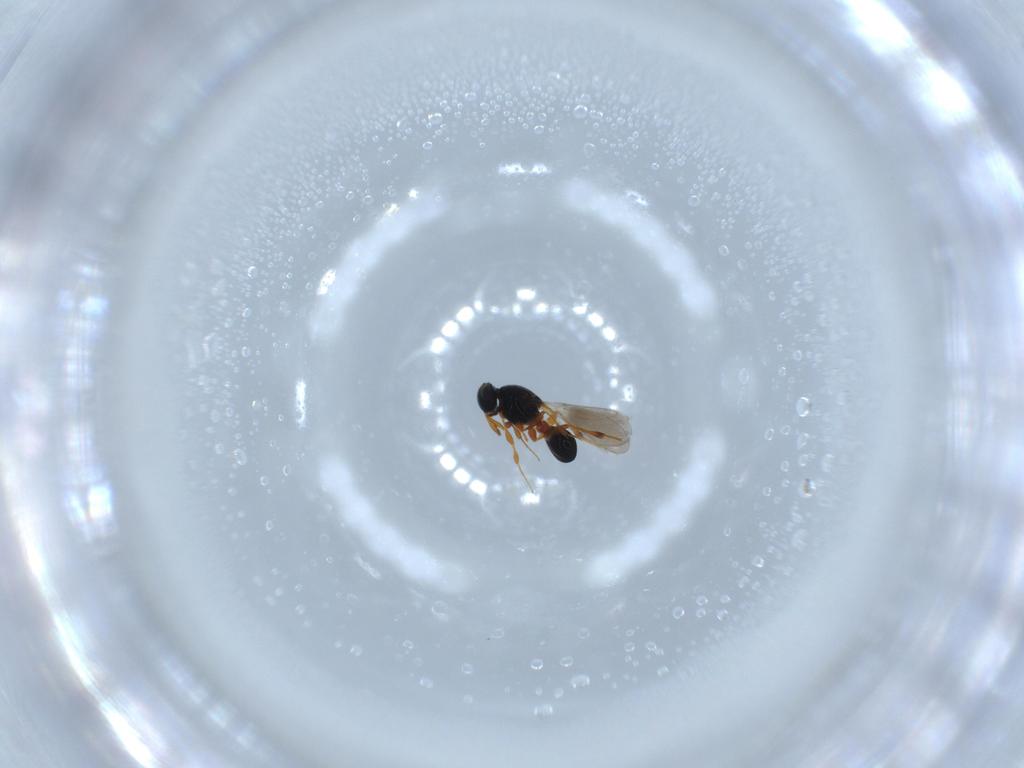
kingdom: Animalia
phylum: Arthropoda
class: Insecta
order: Hymenoptera
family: Platygastridae
